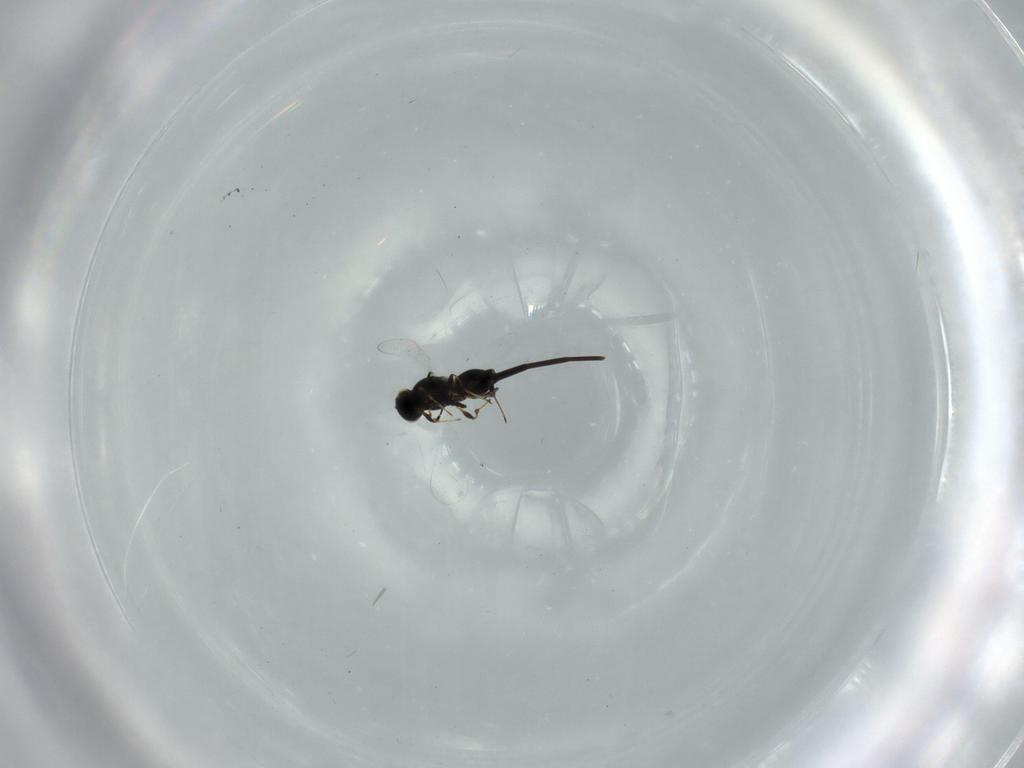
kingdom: Animalia
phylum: Arthropoda
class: Insecta
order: Hymenoptera
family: Platygastridae
